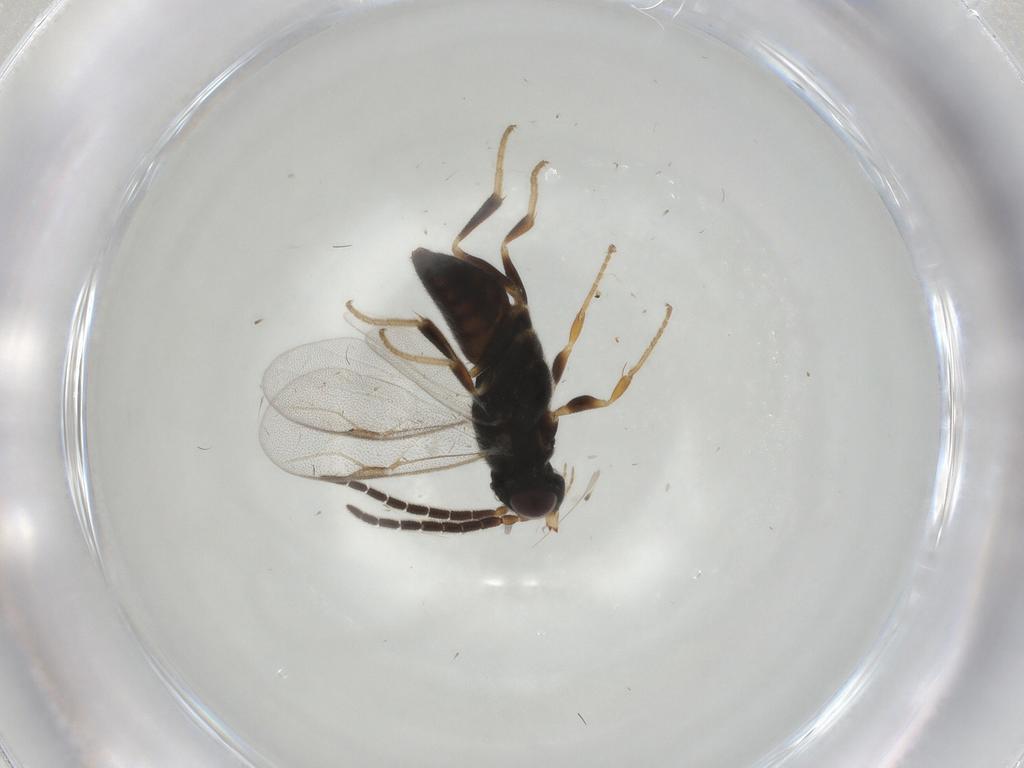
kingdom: Animalia
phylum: Arthropoda
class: Insecta
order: Hymenoptera
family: Dryinidae
